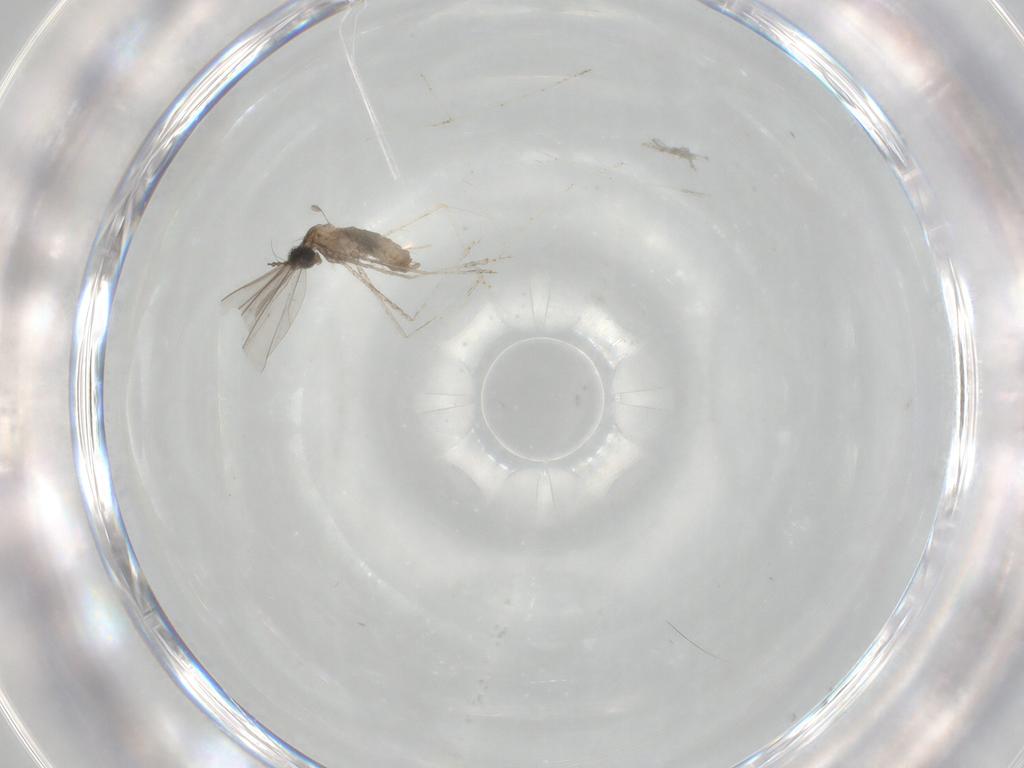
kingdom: Animalia
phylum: Arthropoda
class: Insecta
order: Diptera
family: Cecidomyiidae
